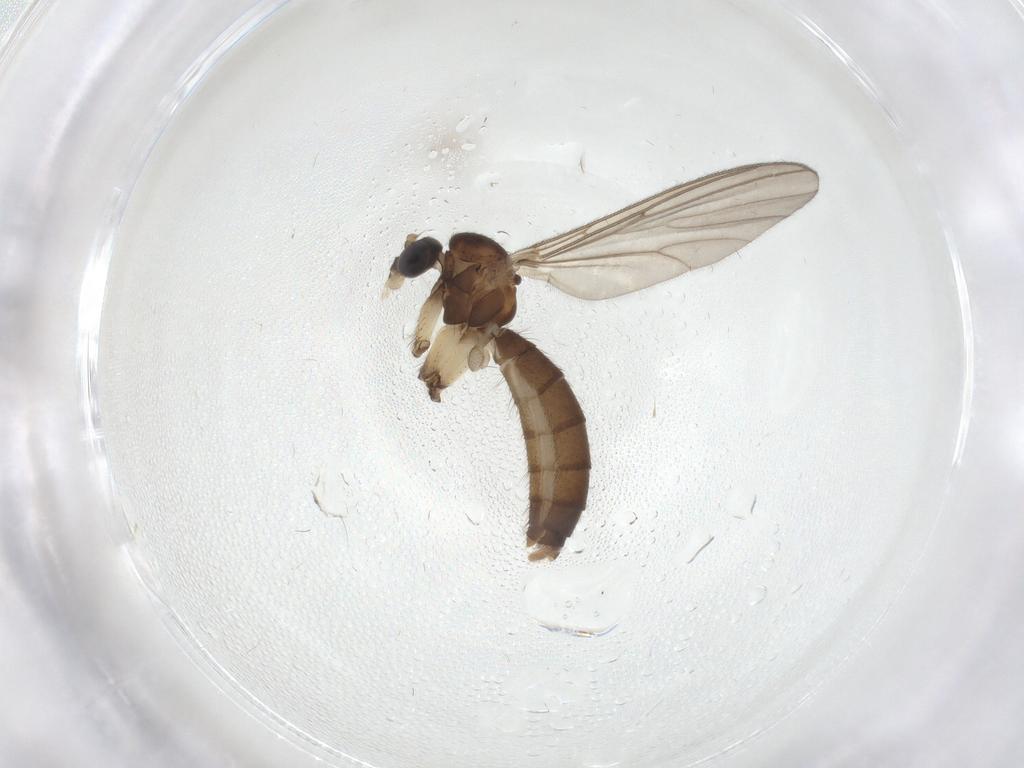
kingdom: Animalia
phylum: Arthropoda
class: Insecta
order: Diptera
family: Mycetophilidae
